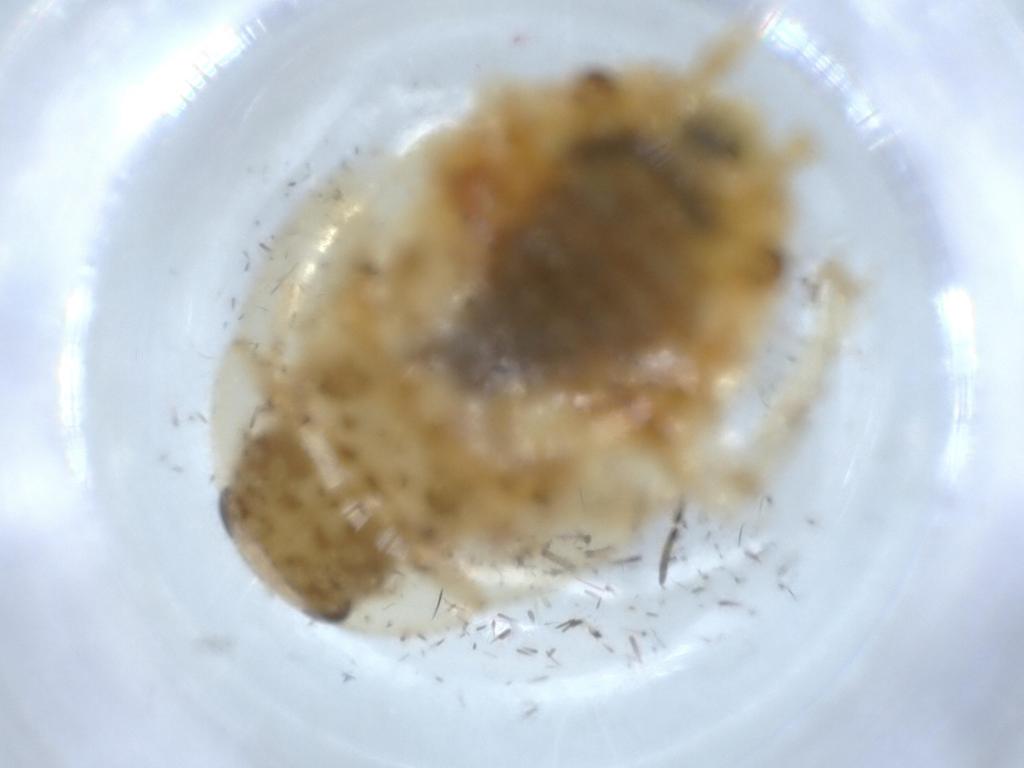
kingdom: Animalia
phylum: Arthropoda
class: Insecta
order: Blattodea
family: Ectobiidae
